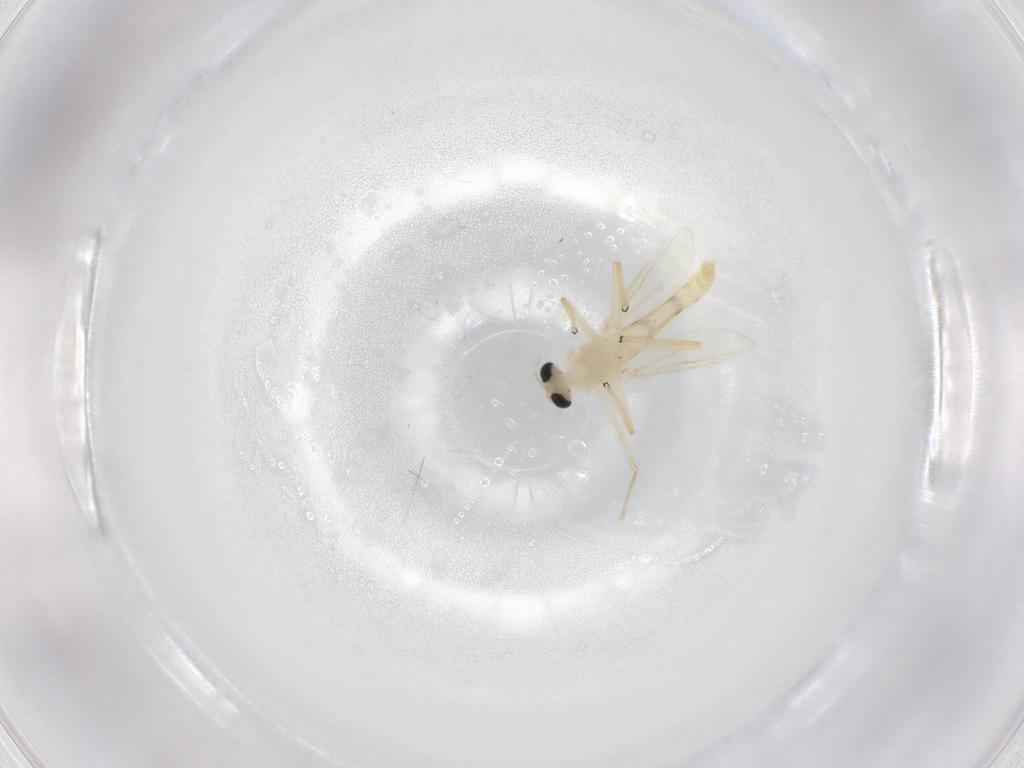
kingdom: Animalia
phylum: Arthropoda
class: Insecta
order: Diptera
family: Chironomidae
